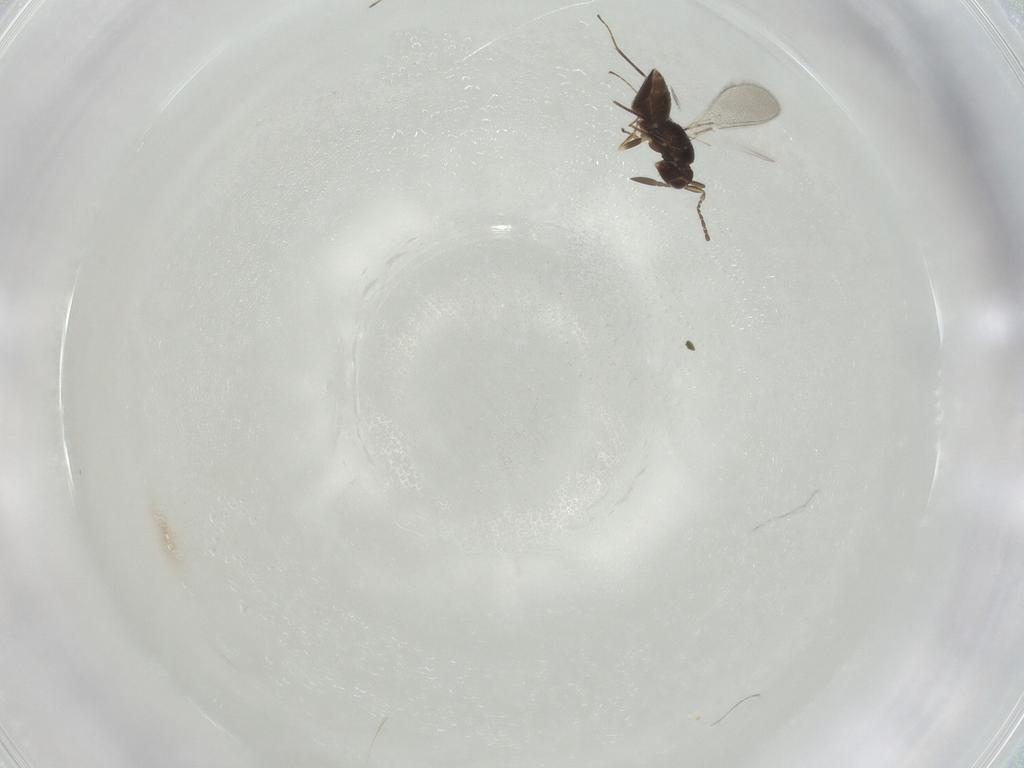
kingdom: Animalia
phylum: Arthropoda
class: Insecta
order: Hymenoptera
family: Mymaridae
